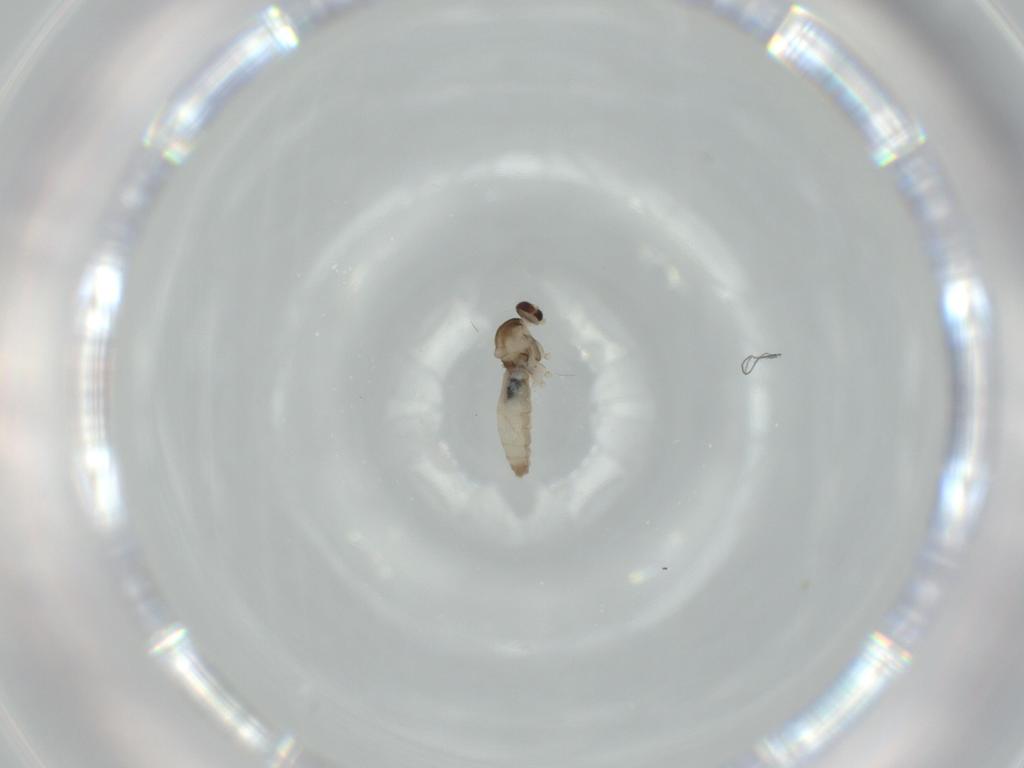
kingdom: Animalia
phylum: Arthropoda
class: Insecta
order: Diptera
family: Cecidomyiidae
